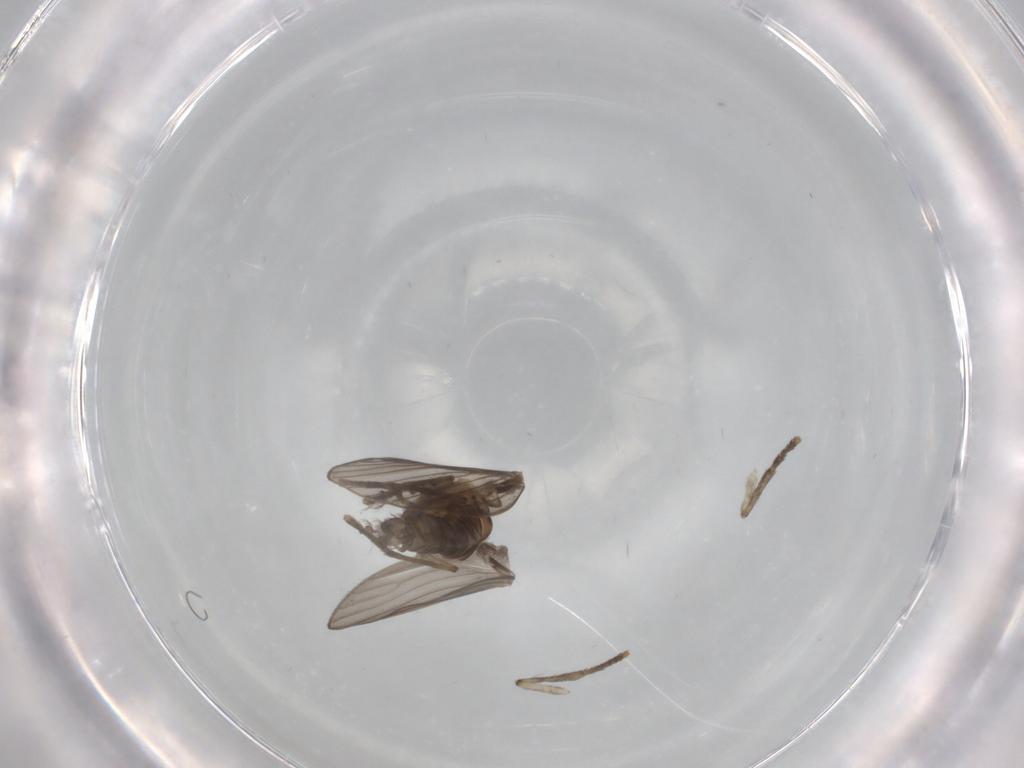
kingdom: Animalia
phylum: Arthropoda
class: Insecta
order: Diptera
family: Psychodidae
